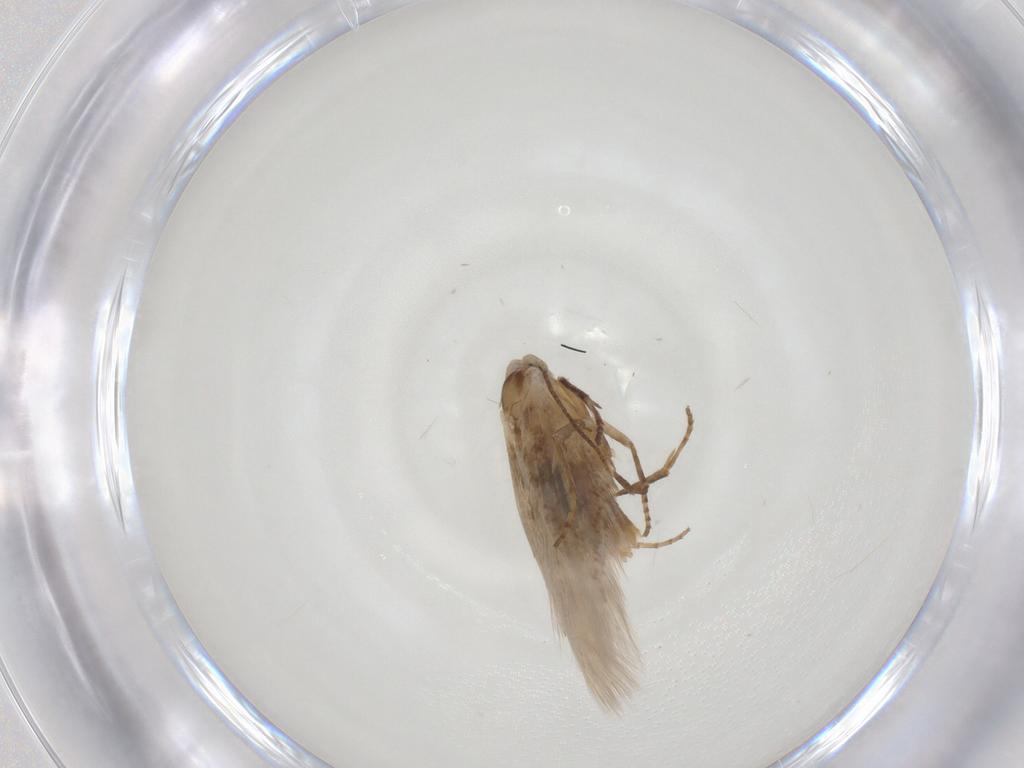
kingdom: Animalia
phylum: Arthropoda
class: Insecta
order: Lepidoptera
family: Bucculatricidae
